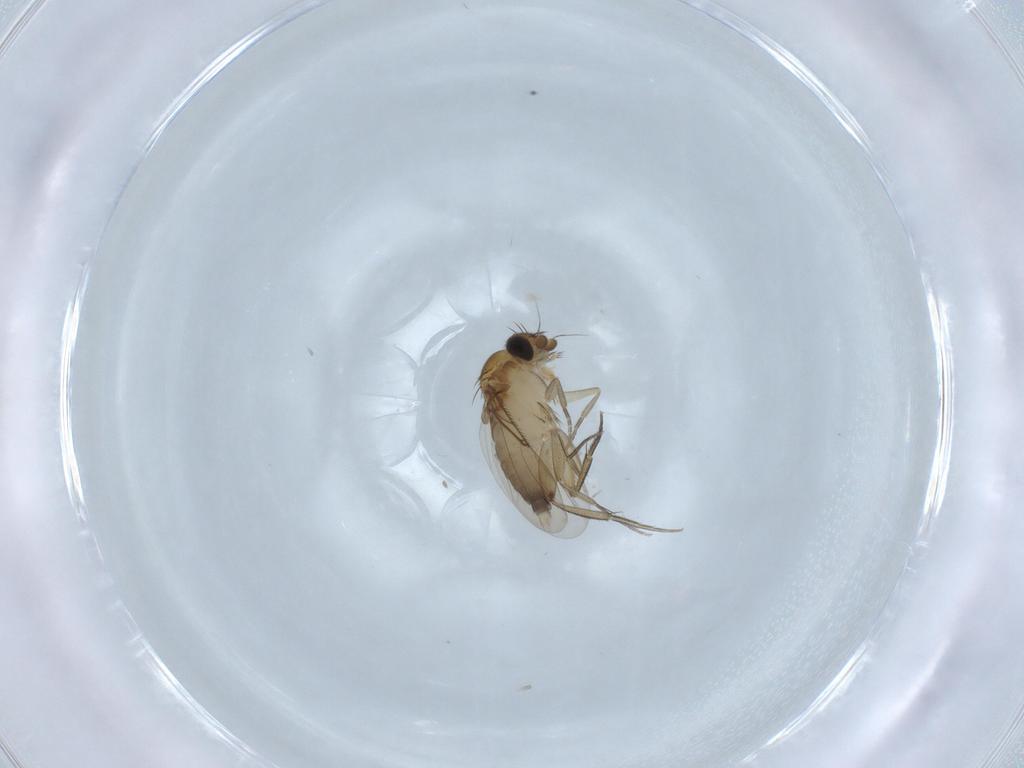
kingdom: Animalia
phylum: Arthropoda
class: Insecta
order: Diptera
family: Phoridae
